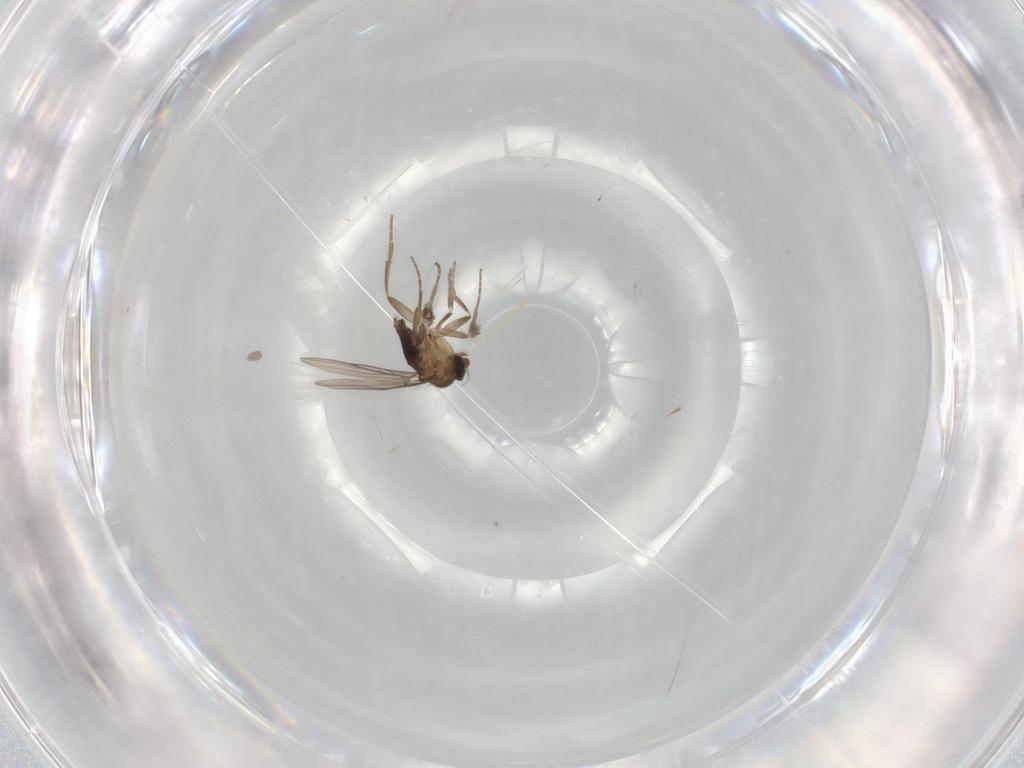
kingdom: Animalia
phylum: Arthropoda
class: Insecta
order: Diptera
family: Phoridae
